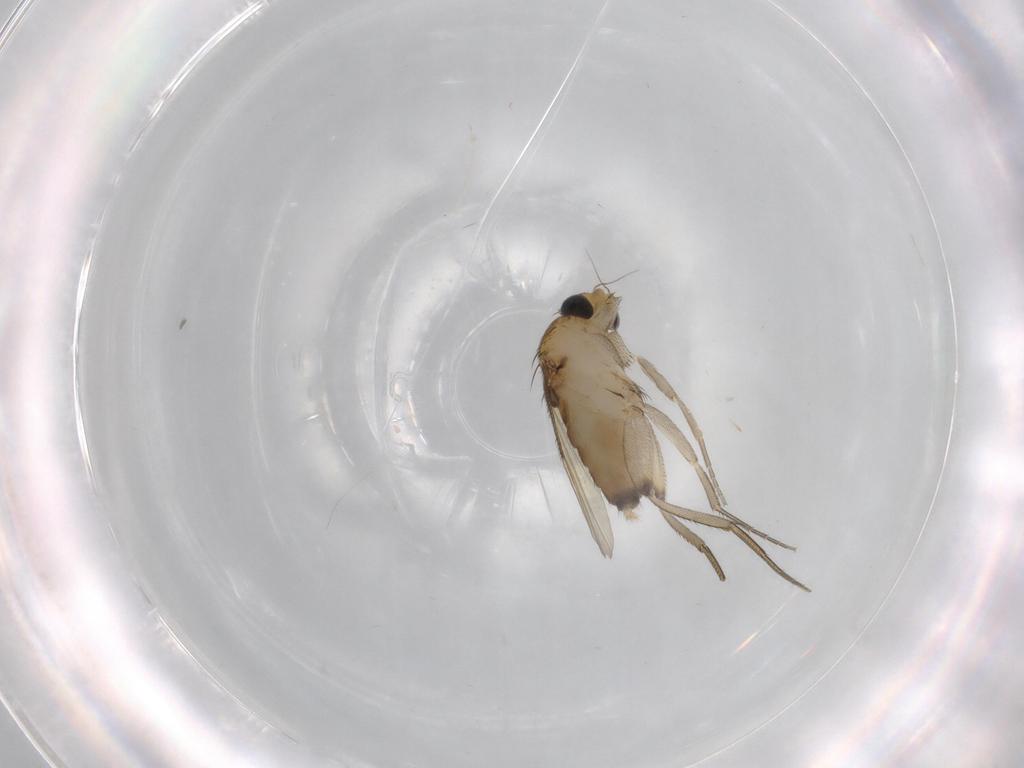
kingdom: Animalia
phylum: Arthropoda
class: Insecta
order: Diptera
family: Phoridae
